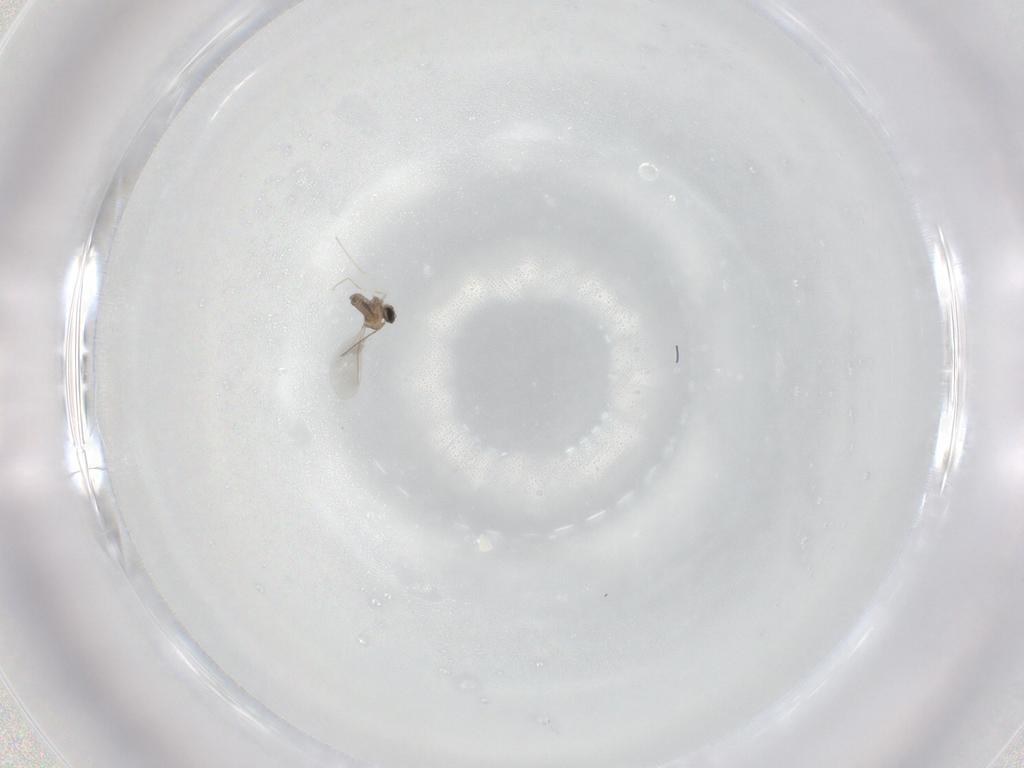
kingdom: Animalia
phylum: Arthropoda
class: Insecta
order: Diptera
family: Cecidomyiidae
